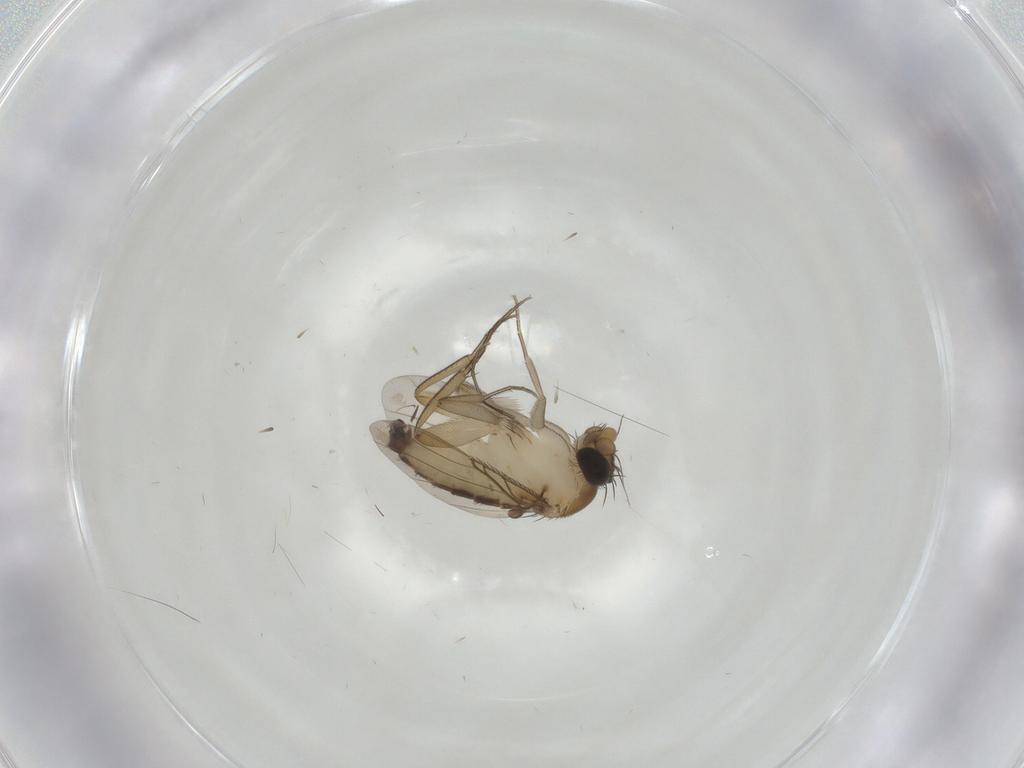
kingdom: Animalia
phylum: Arthropoda
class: Insecta
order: Diptera
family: Phoridae
